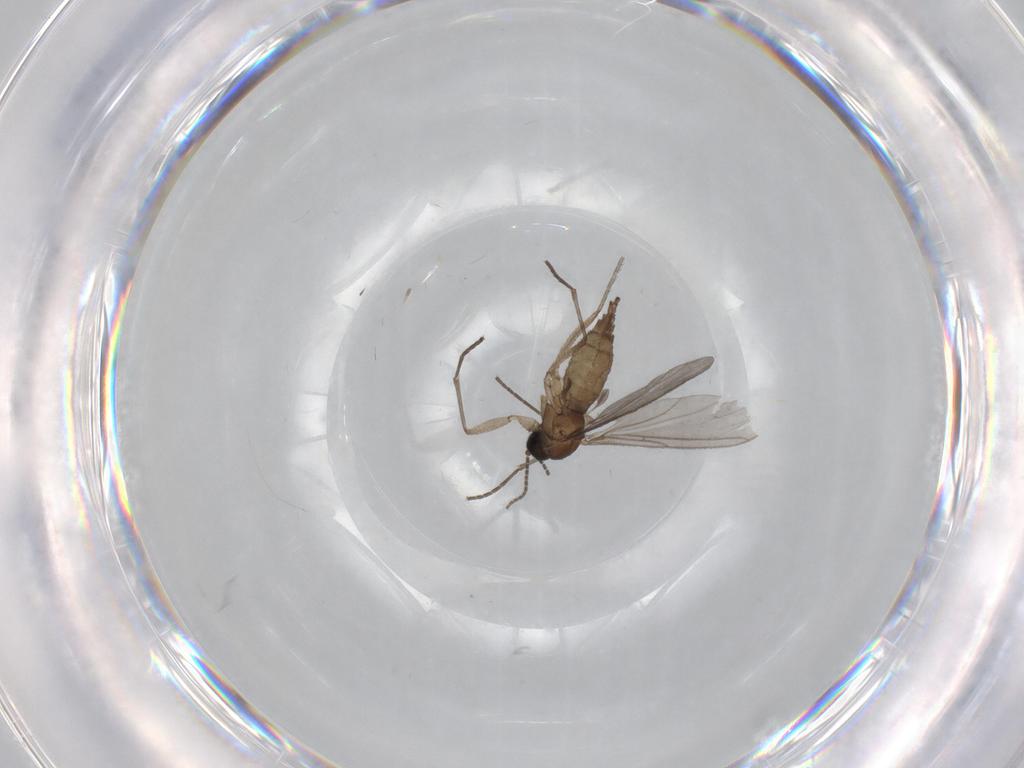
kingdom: Animalia
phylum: Arthropoda
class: Insecta
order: Diptera
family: Sciaridae
